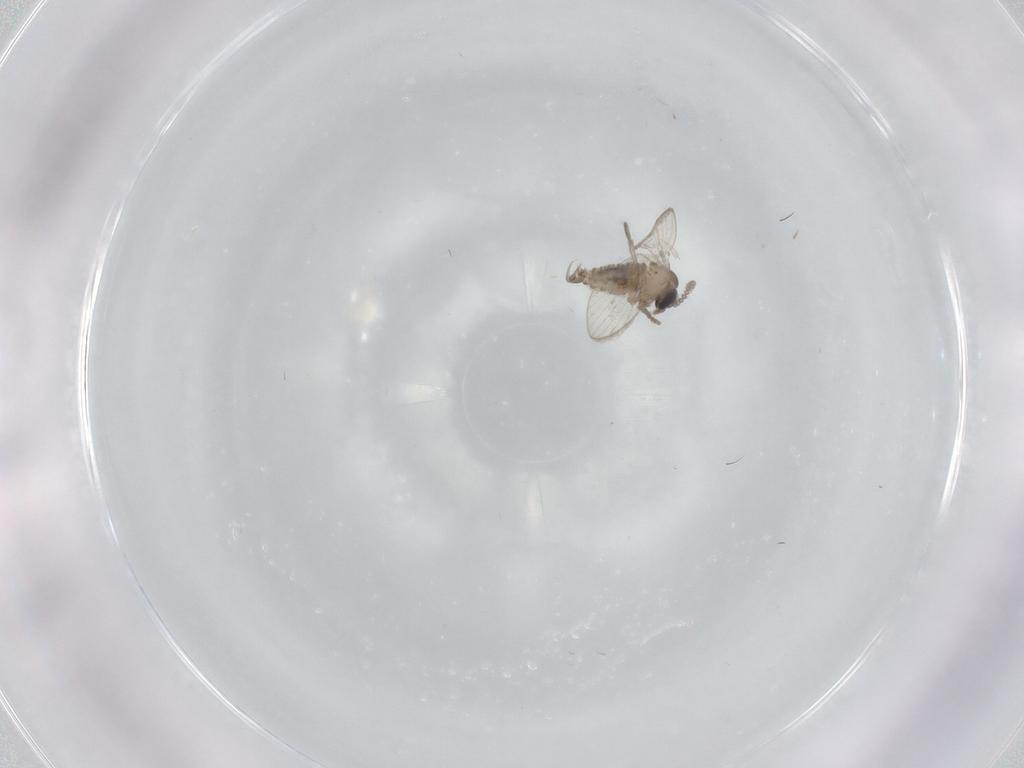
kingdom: Animalia
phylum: Arthropoda
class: Insecta
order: Diptera
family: Psychodidae
